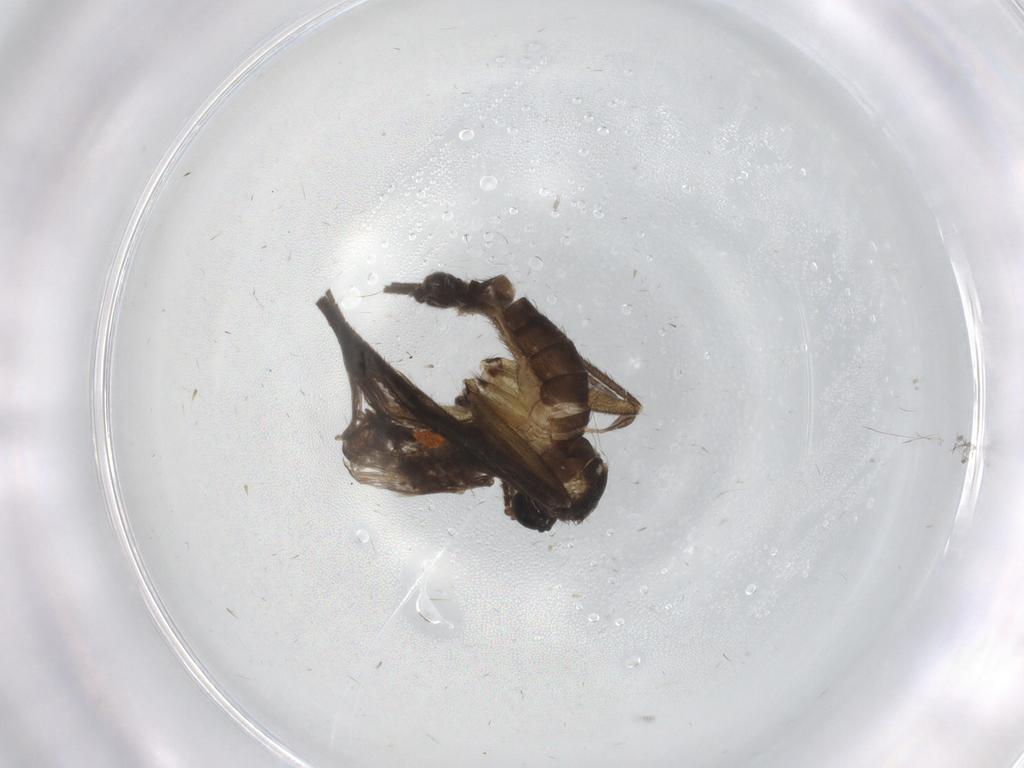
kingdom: Animalia
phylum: Arthropoda
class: Insecta
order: Diptera
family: Sciaridae
